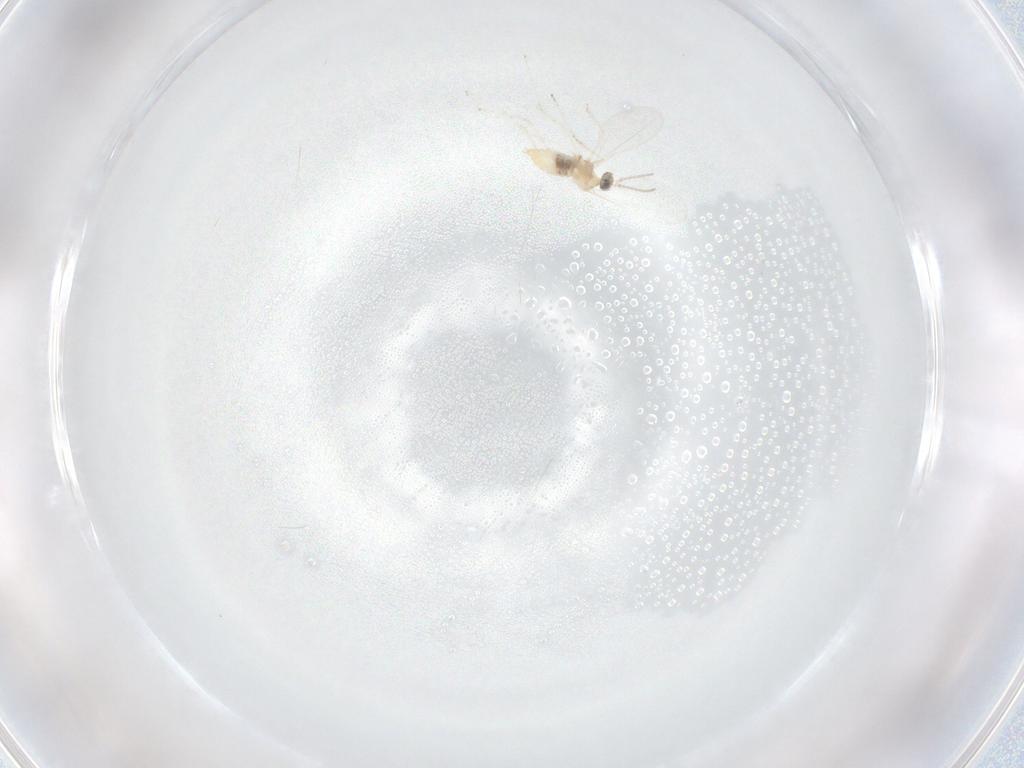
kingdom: Animalia
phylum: Arthropoda
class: Insecta
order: Diptera
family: Cecidomyiidae
